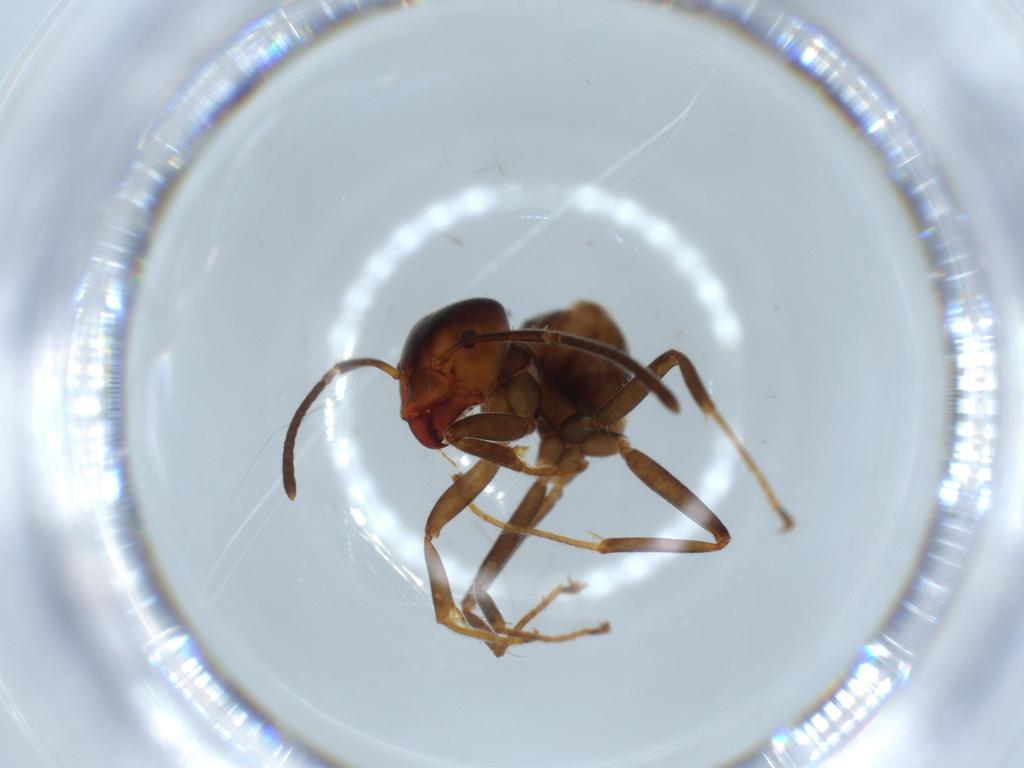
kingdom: Animalia
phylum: Arthropoda
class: Insecta
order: Hymenoptera
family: Formicidae
